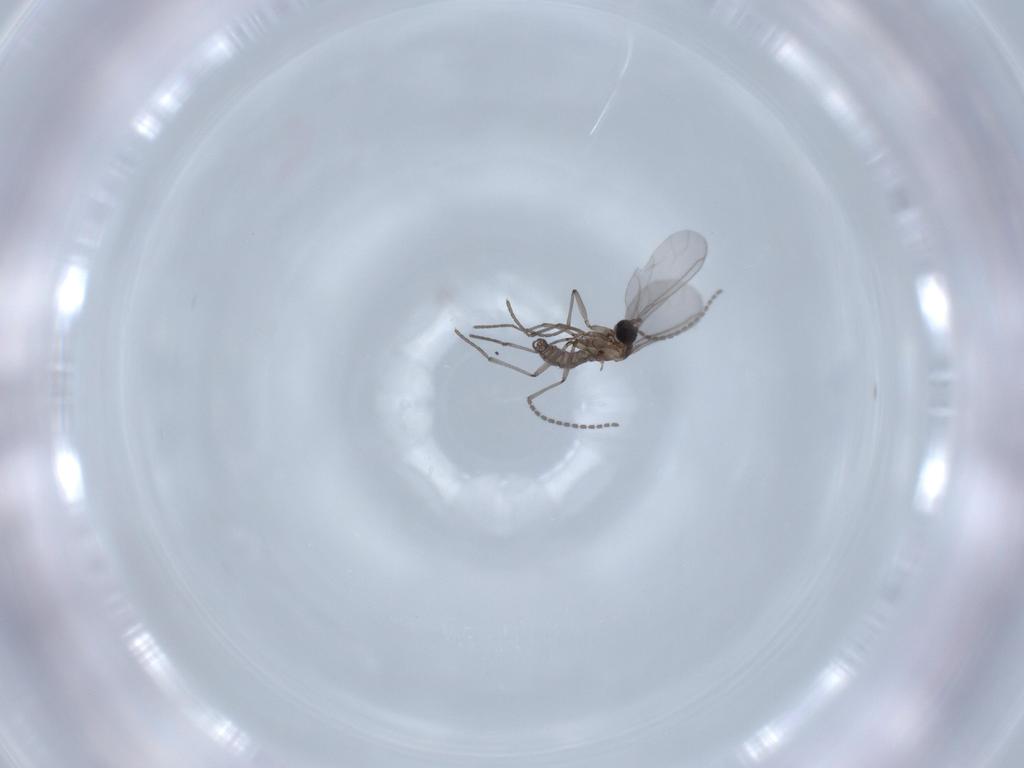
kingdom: Animalia
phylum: Arthropoda
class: Insecta
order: Diptera
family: Sciaridae
